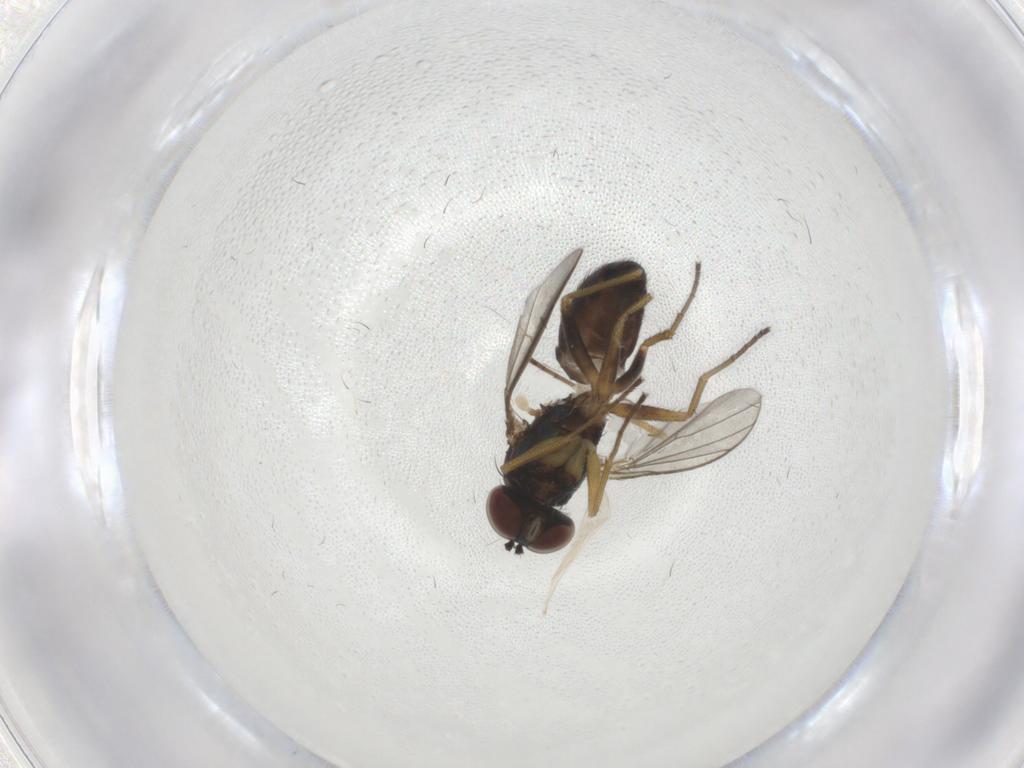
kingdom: Animalia
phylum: Arthropoda
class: Insecta
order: Diptera
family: Dolichopodidae
